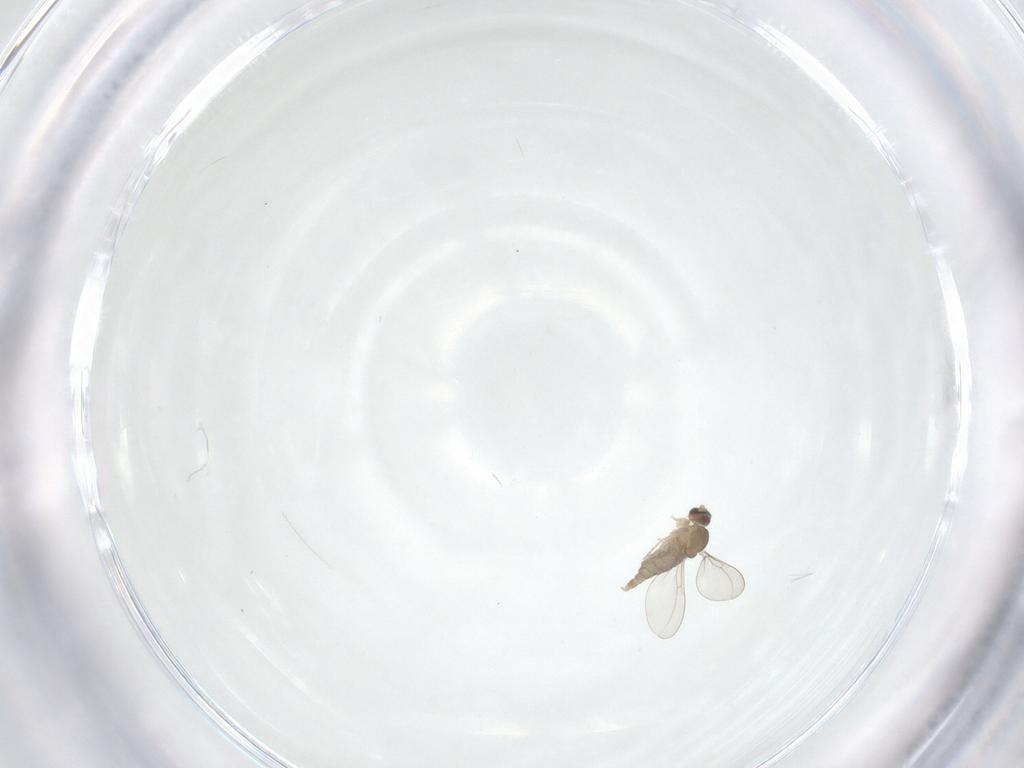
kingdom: Animalia
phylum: Arthropoda
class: Insecta
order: Diptera
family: Cecidomyiidae
